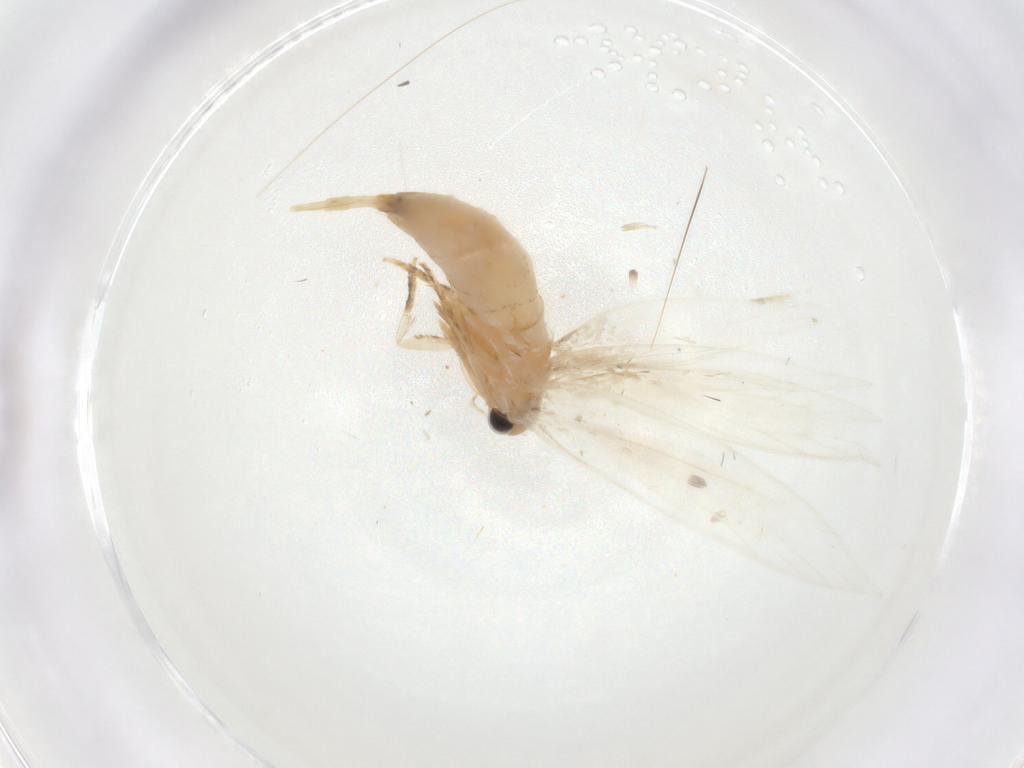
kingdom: Animalia
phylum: Arthropoda
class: Insecta
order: Lepidoptera
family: Tineidae
